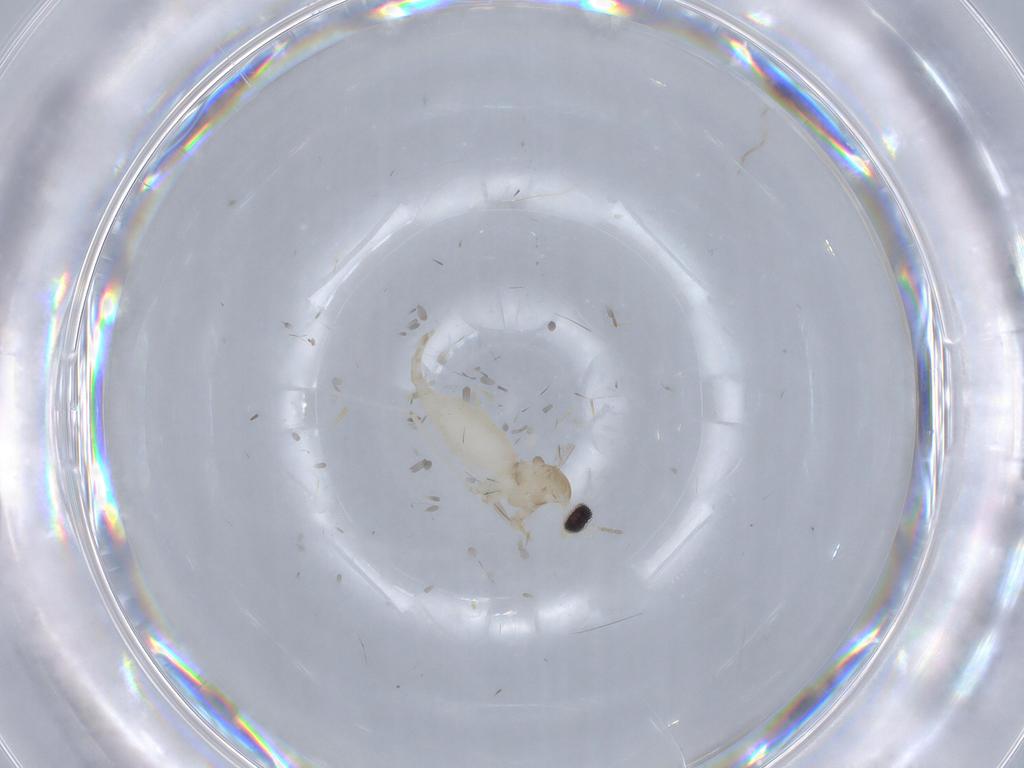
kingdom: Animalia
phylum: Arthropoda
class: Insecta
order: Diptera
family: Cecidomyiidae
